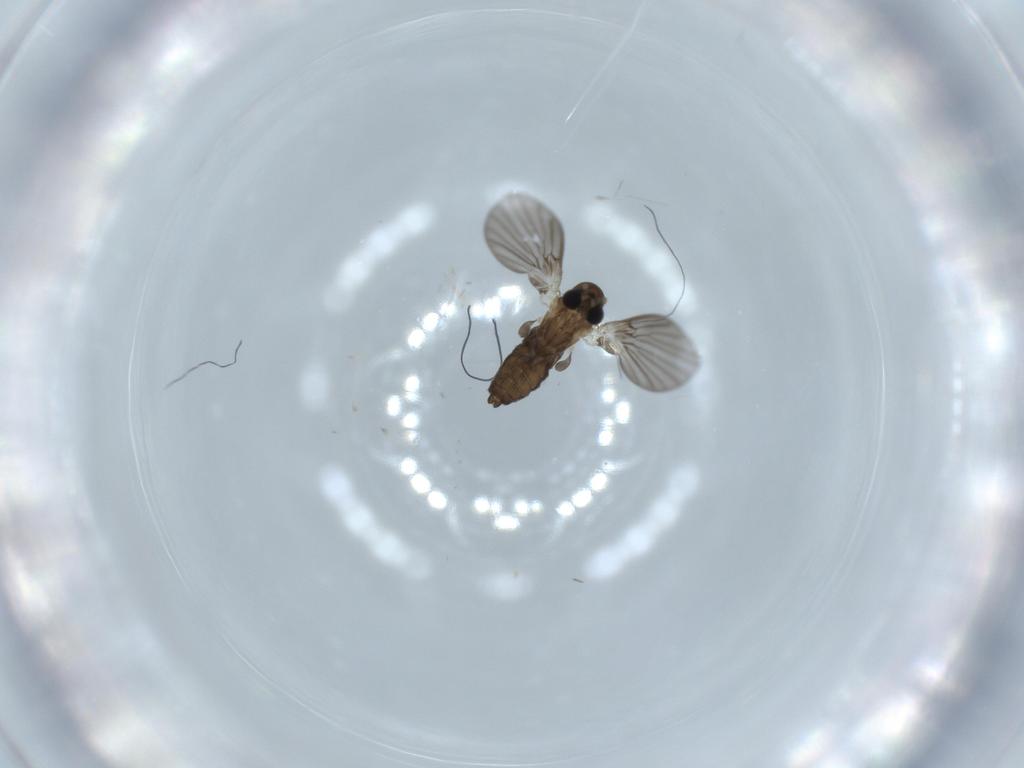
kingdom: Animalia
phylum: Arthropoda
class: Insecta
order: Diptera
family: Psychodidae
